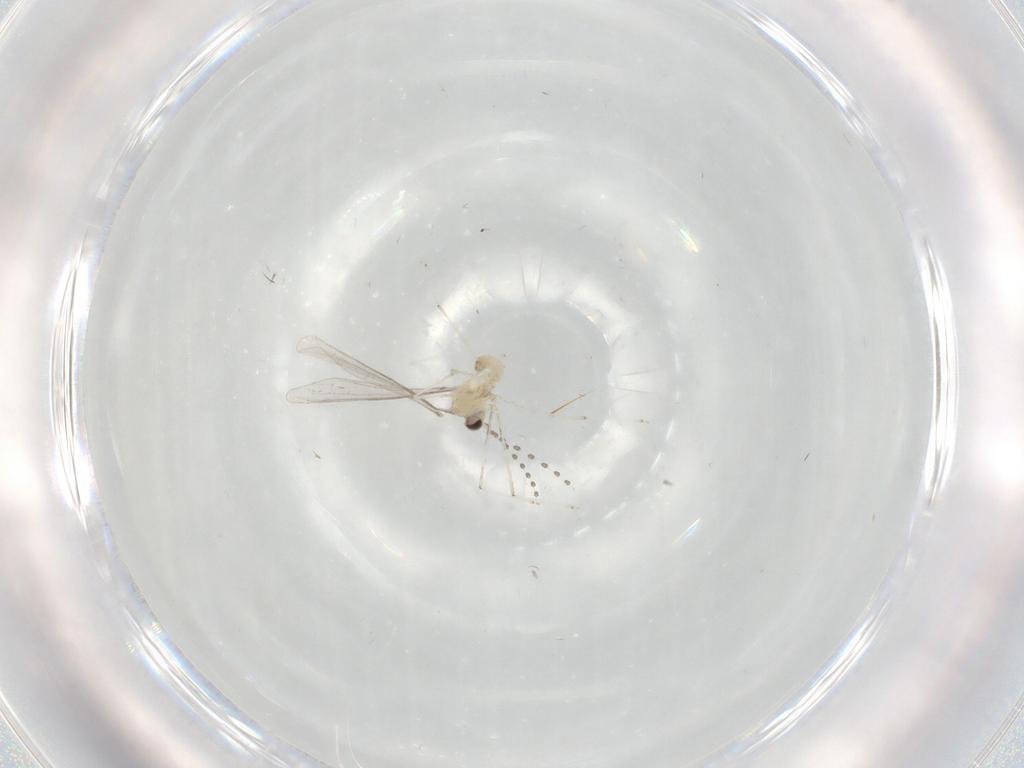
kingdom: Animalia
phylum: Arthropoda
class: Insecta
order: Diptera
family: Cecidomyiidae
